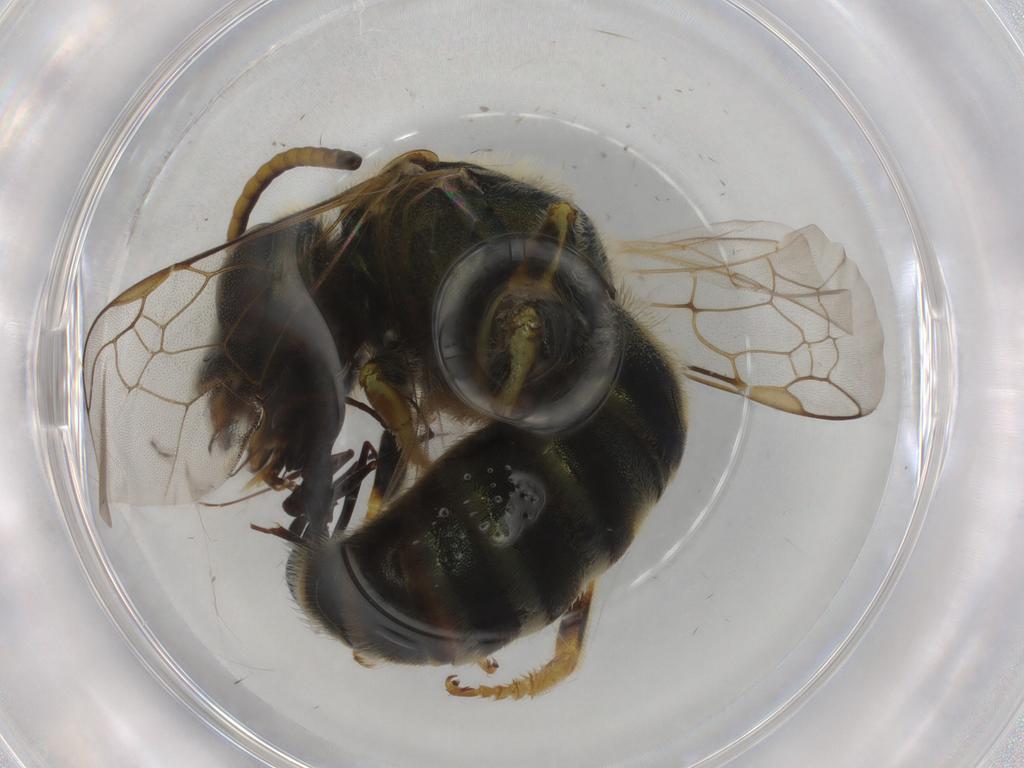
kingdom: Animalia
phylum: Arthropoda
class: Insecta
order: Hymenoptera
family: Halictidae
